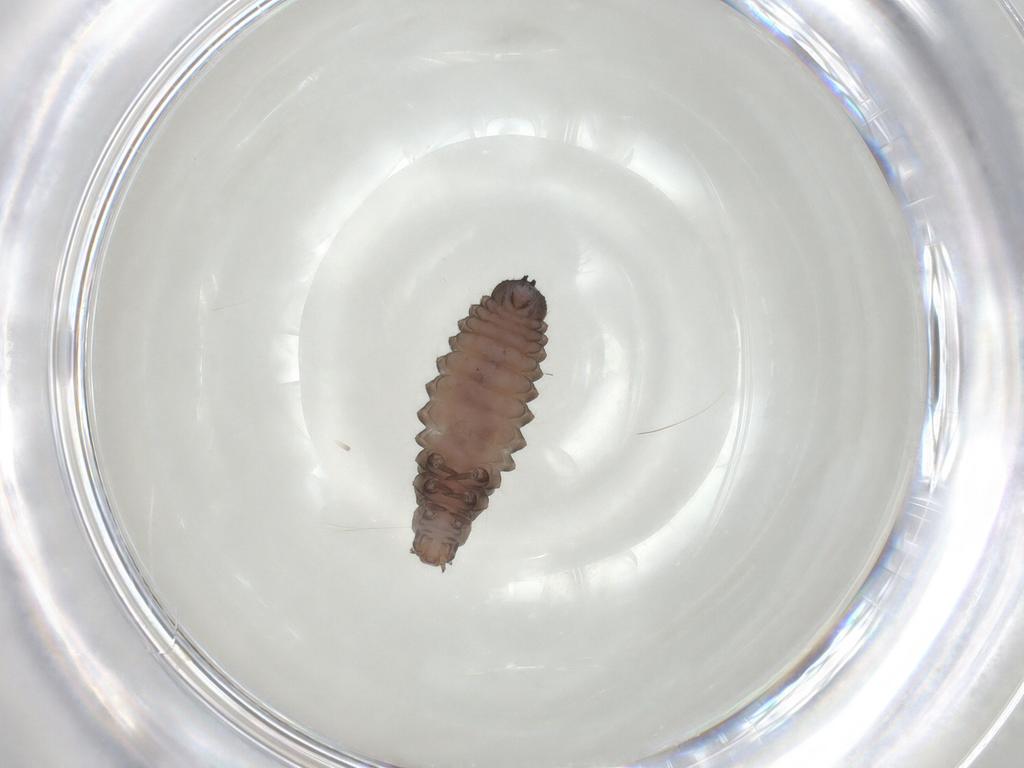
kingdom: Animalia
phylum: Arthropoda
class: Insecta
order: Coleoptera
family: Coccinellidae
